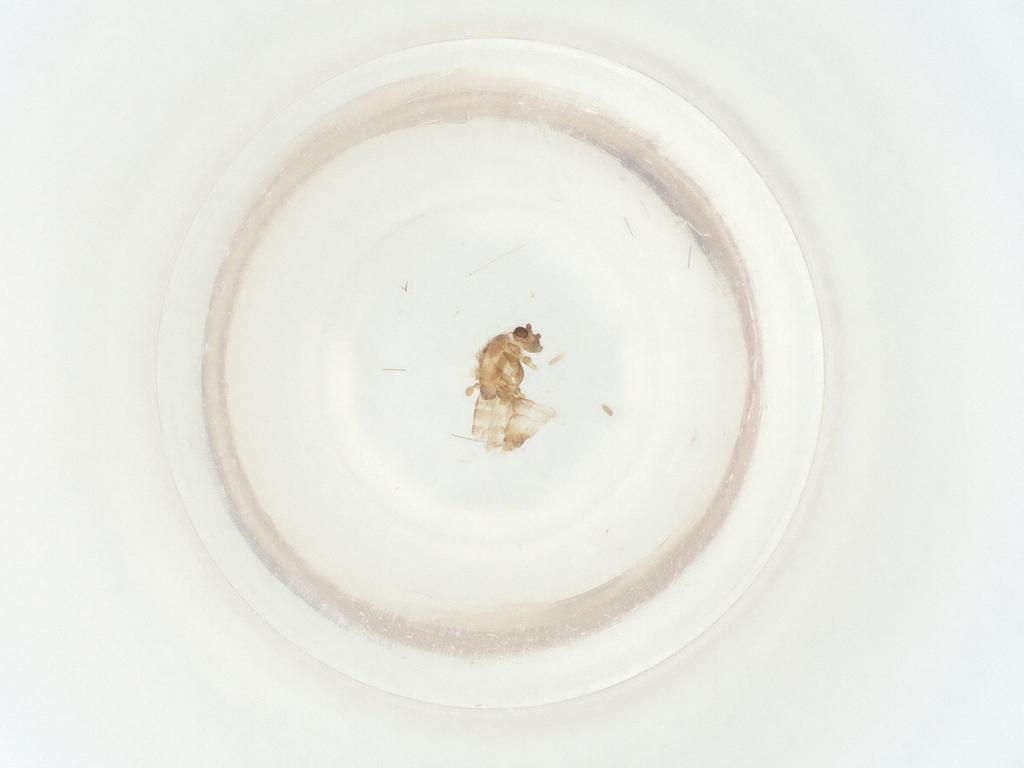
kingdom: Animalia
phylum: Arthropoda
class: Insecta
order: Diptera
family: Chironomidae
